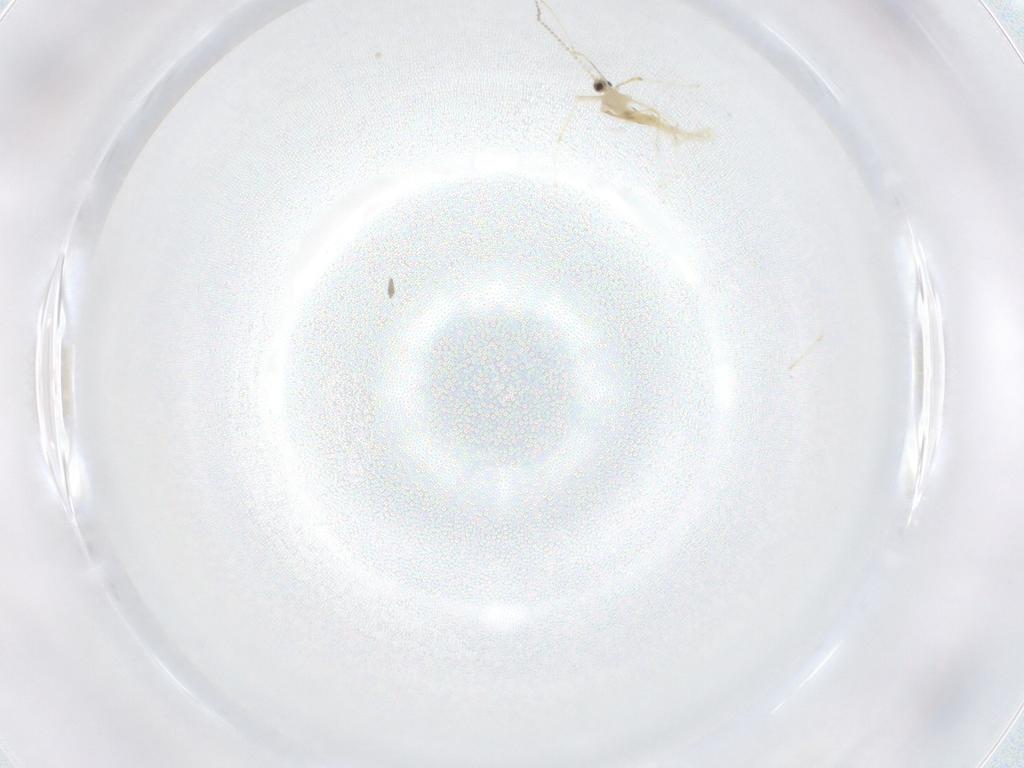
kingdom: Animalia
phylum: Arthropoda
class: Insecta
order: Diptera
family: Cecidomyiidae
